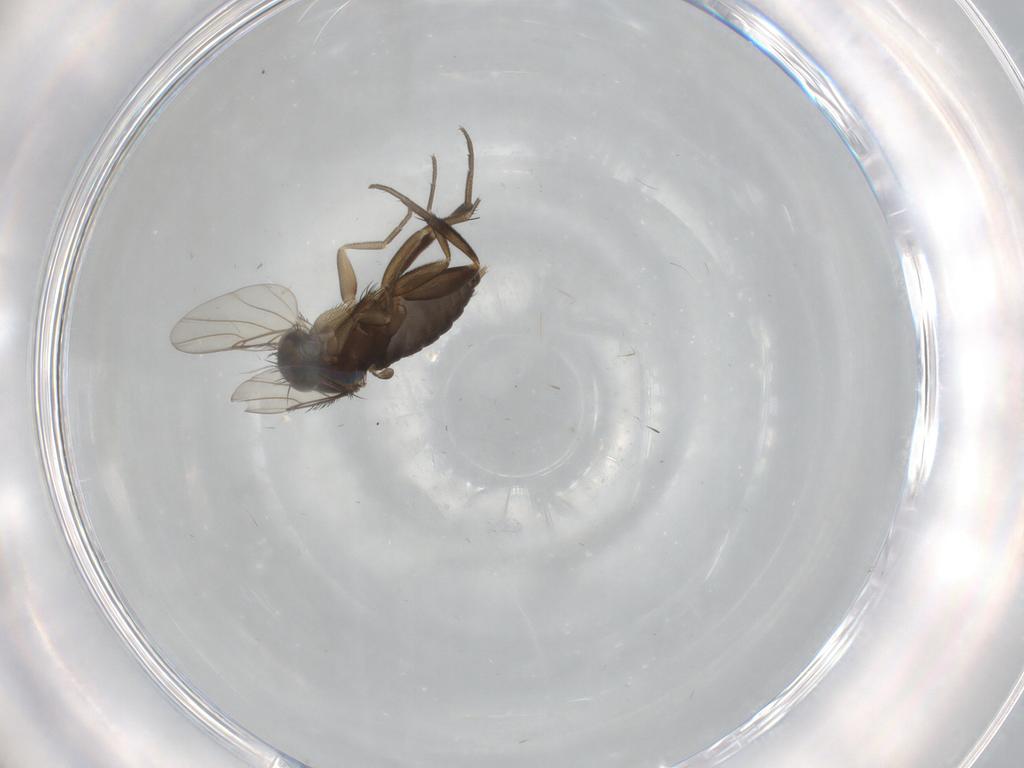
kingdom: Animalia
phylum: Arthropoda
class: Insecta
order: Diptera
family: Phoridae
